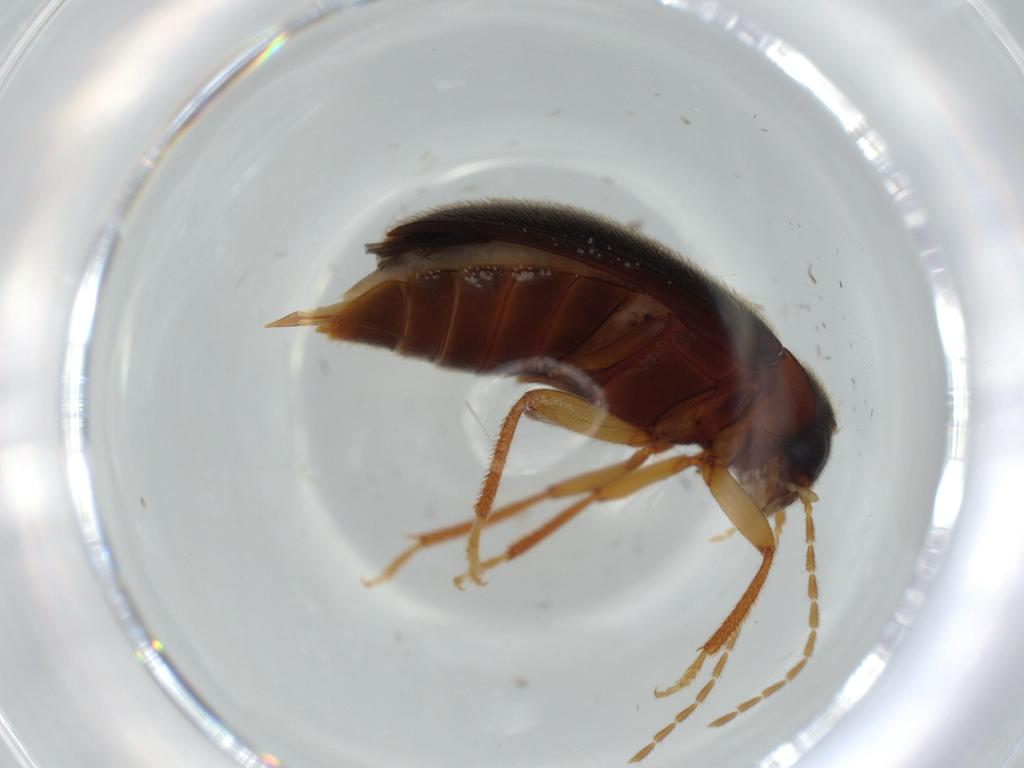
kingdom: Animalia
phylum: Arthropoda
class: Insecta
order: Coleoptera
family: Ptilodactylidae
